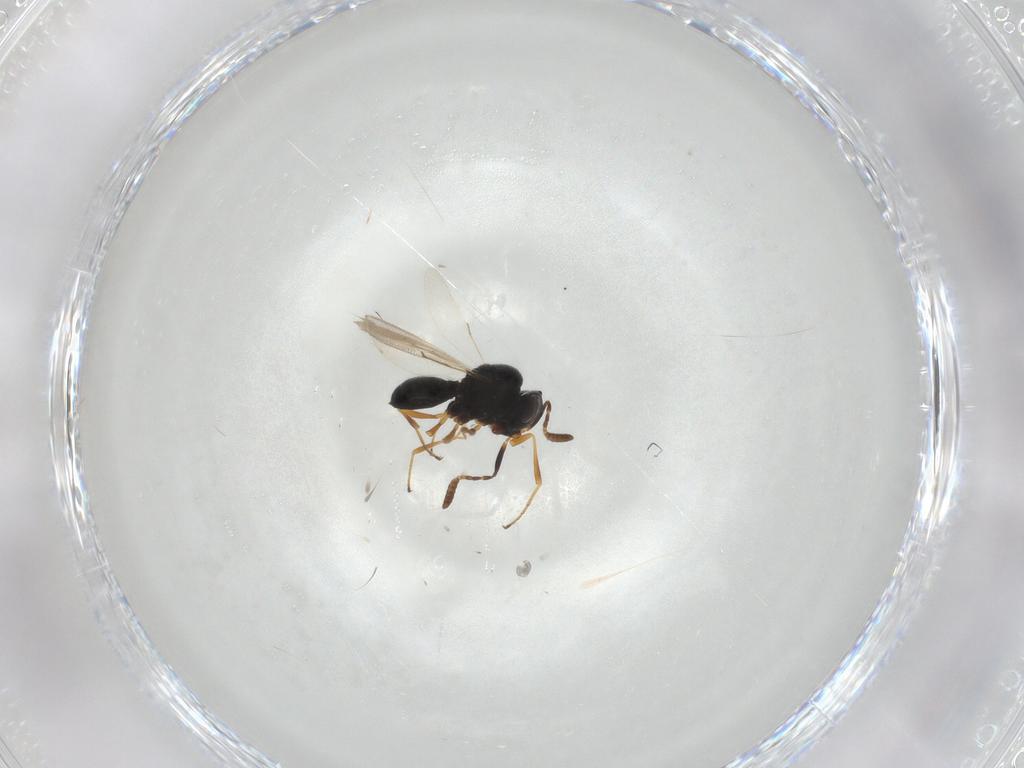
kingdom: Animalia
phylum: Arthropoda
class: Insecta
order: Hymenoptera
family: Scelionidae
